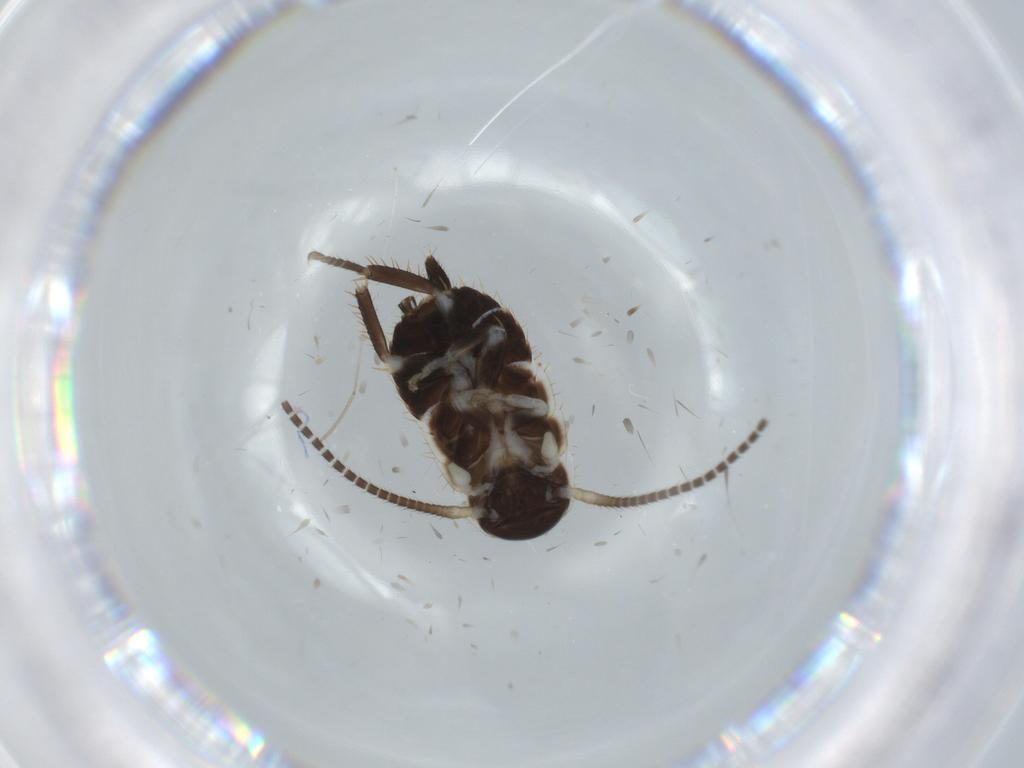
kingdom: Animalia
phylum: Arthropoda
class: Insecta
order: Blattodea
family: Ectobiidae
